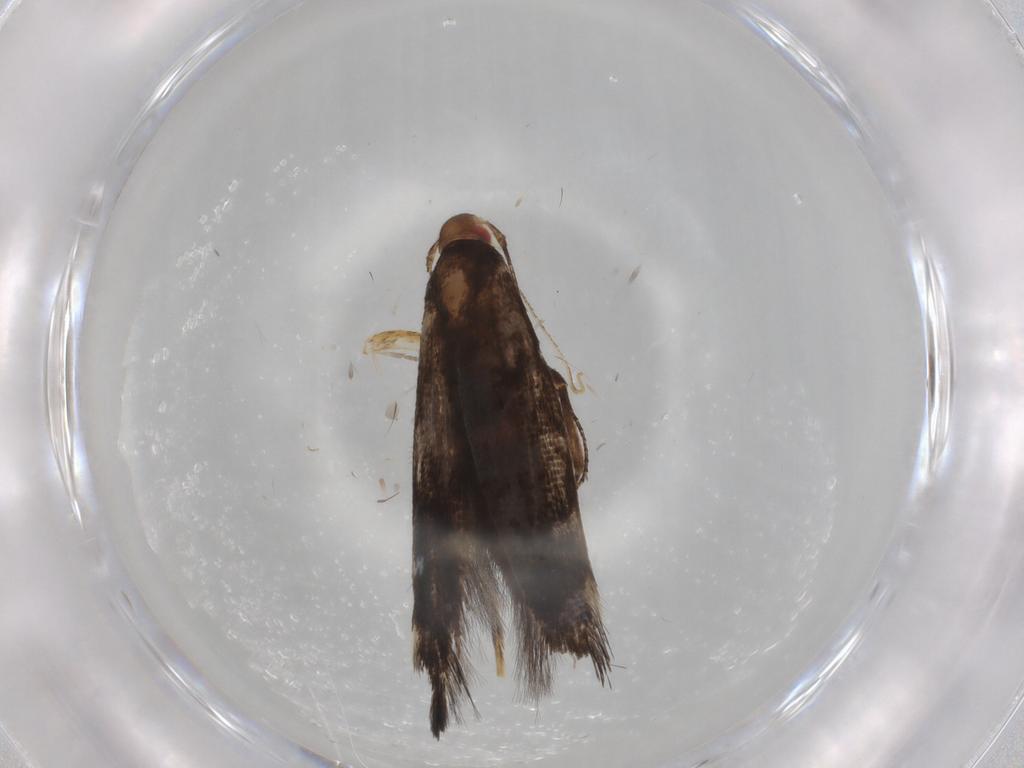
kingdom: Animalia
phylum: Arthropoda
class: Insecta
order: Lepidoptera
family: Cosmopterigidae
